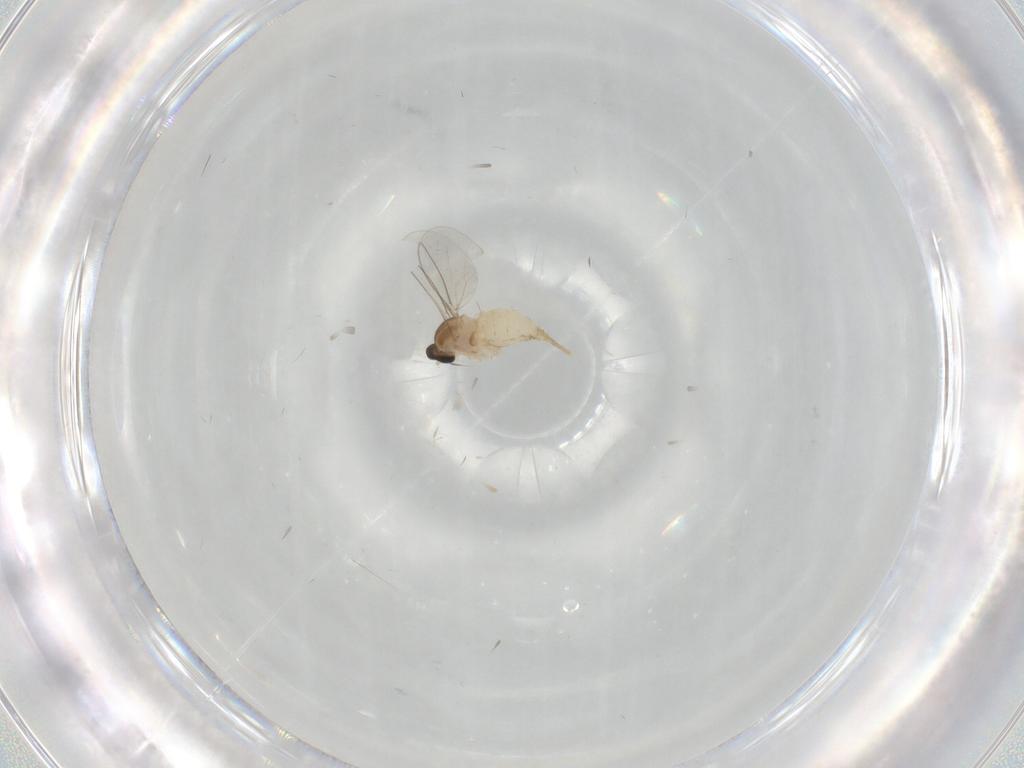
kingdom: Animalia
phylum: Arthropoda
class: Insecta
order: Diptera
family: Cecidomyiidae
